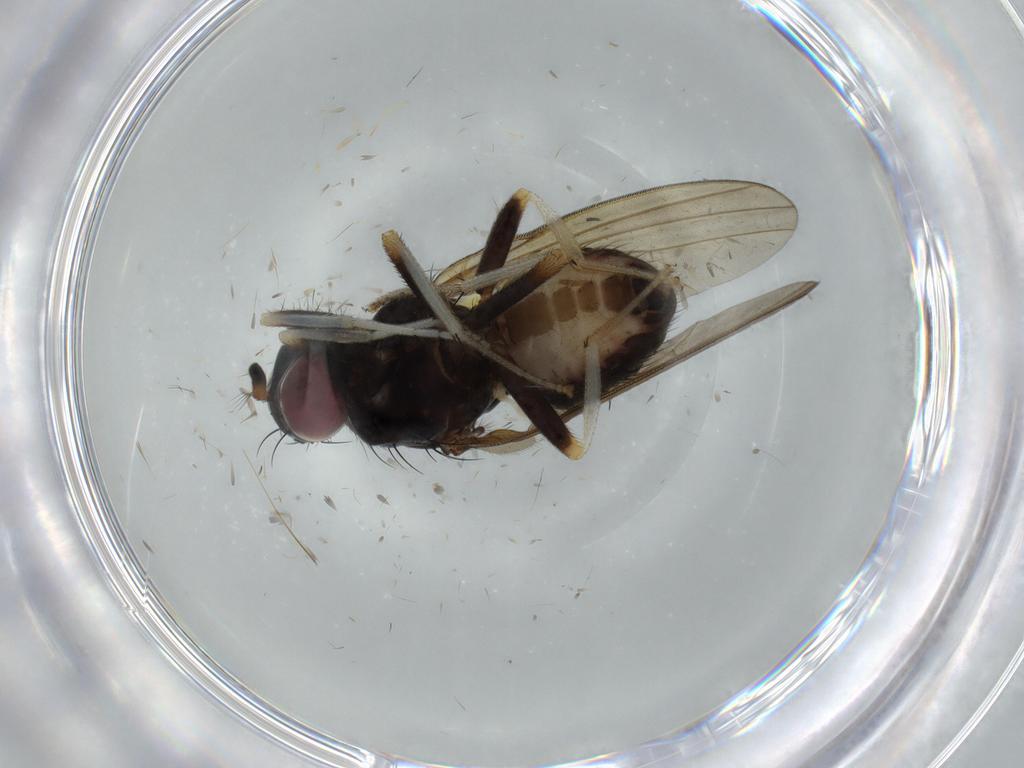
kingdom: Animalia
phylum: Arthropoda
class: Insecta
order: Diptera
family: Lauxaniidae
